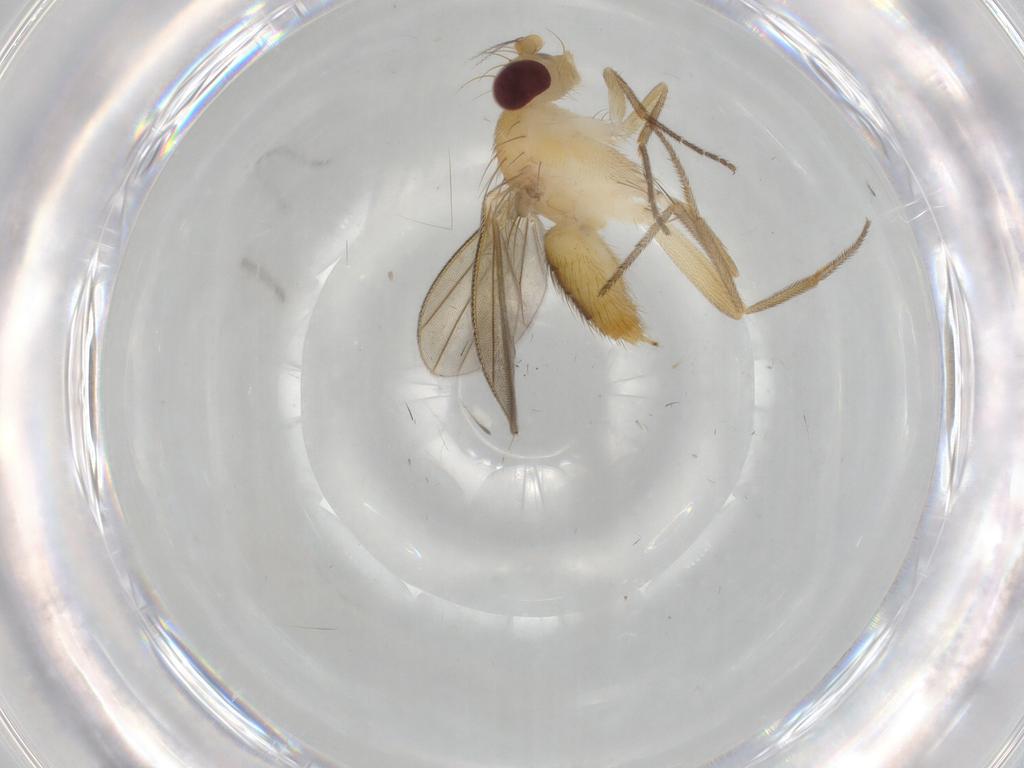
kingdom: Animalia
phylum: Arthropoda
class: Insecta
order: Diptera
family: Clusiidae
